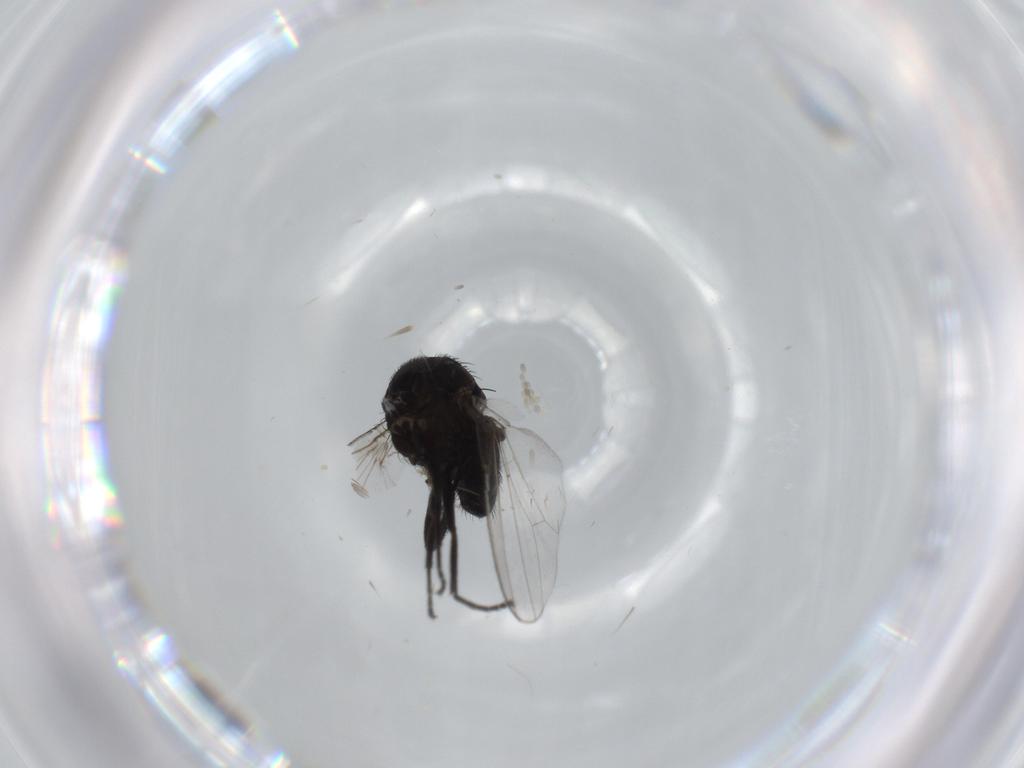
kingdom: Animalia
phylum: Arthropoda
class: Insecta
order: Diptera
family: Milichiidae
